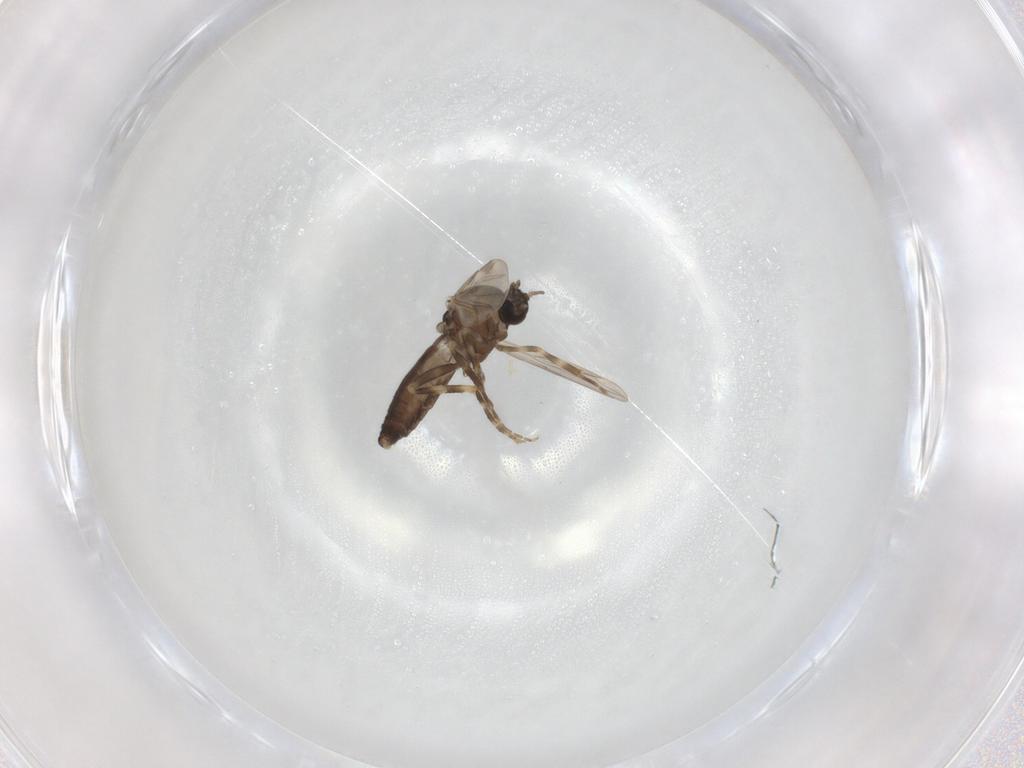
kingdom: Animalia
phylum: Arthropoda
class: Insecta
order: Diptera
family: Ceratopogonidae
